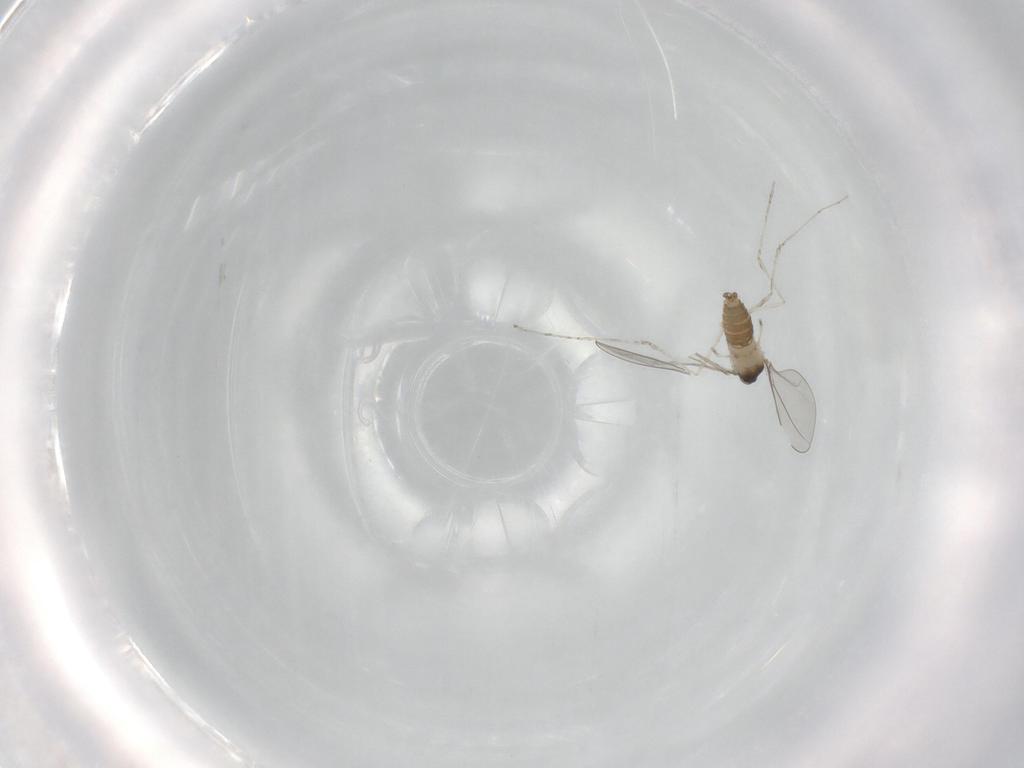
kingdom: Animalia
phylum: Arthropoda
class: Insecta
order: Diptera
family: Cecidomyiidae
